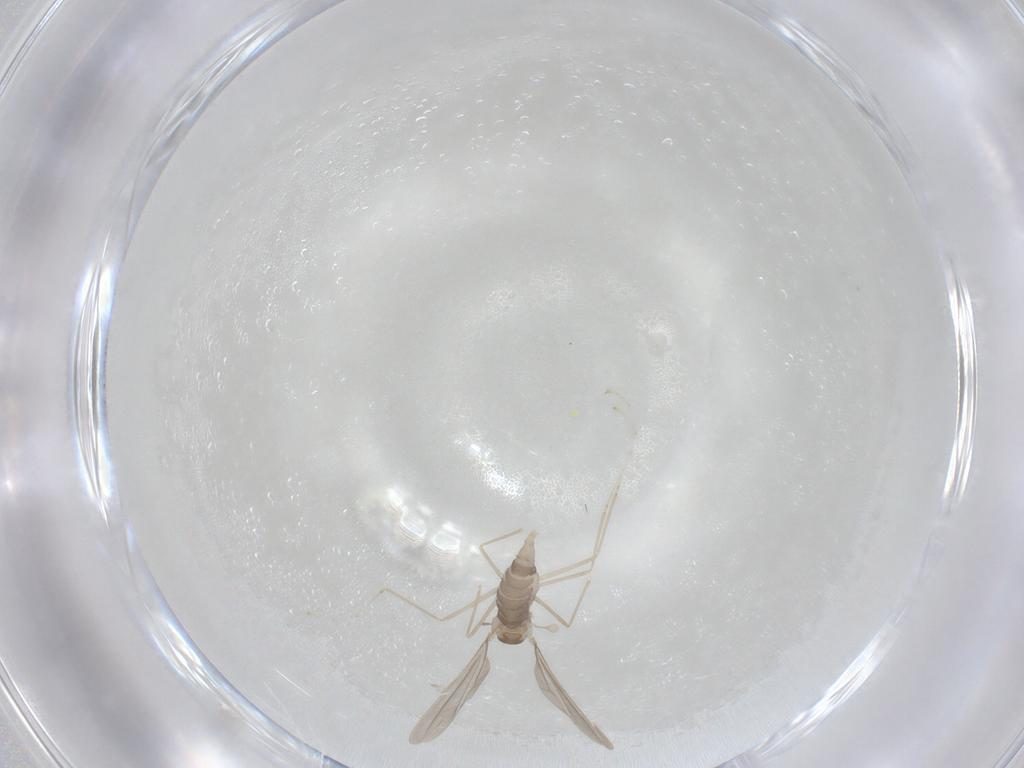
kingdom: Animalia
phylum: Arthropoda
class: Insecta
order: Diptera
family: Cecidomyiidae
